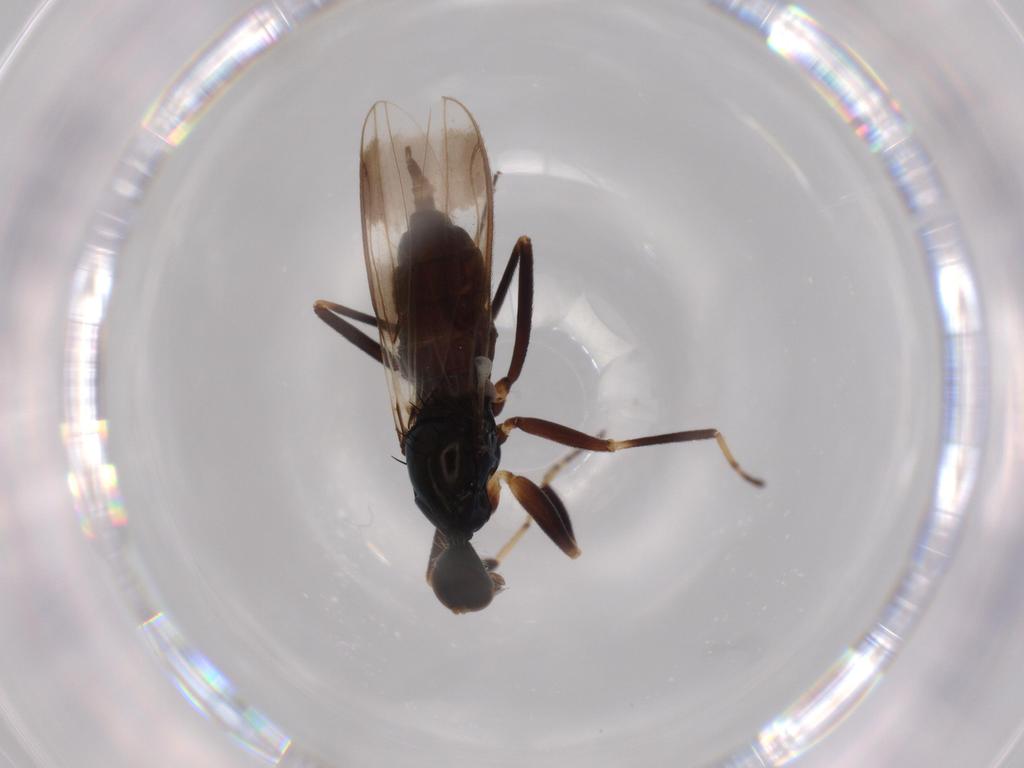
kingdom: Animalia
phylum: Arthropoda
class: Insecta
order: Diptera
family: Hybotidae
